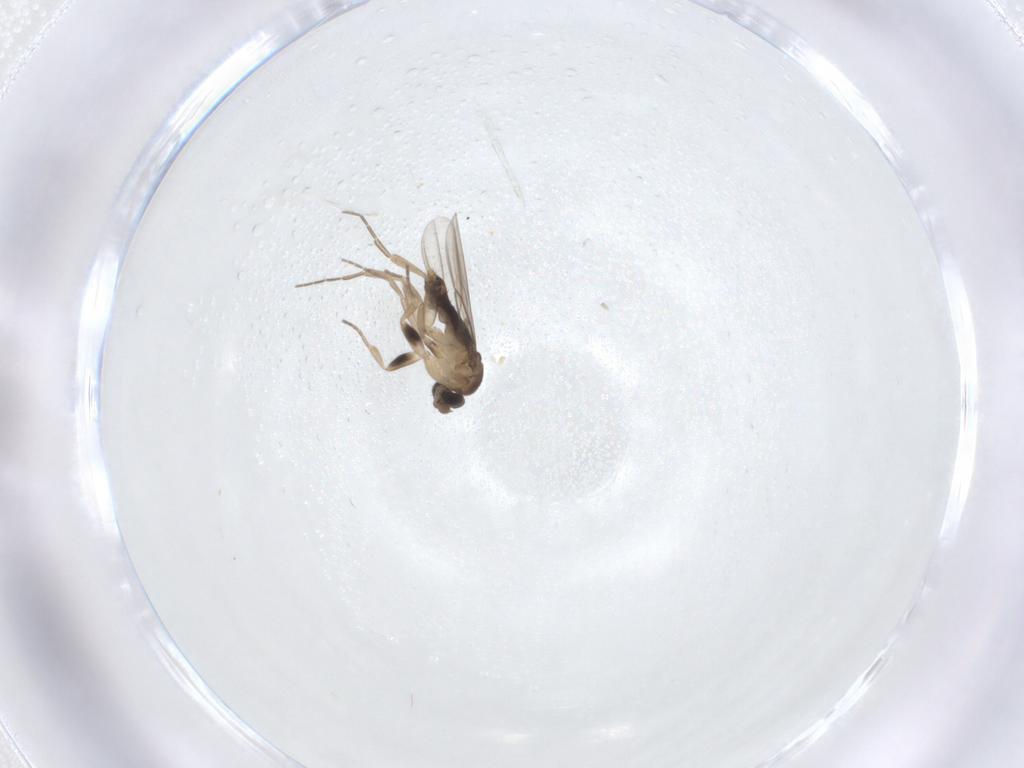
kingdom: Animalia
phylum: Arthropoda
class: Insecta
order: Diptera
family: Phoridae
